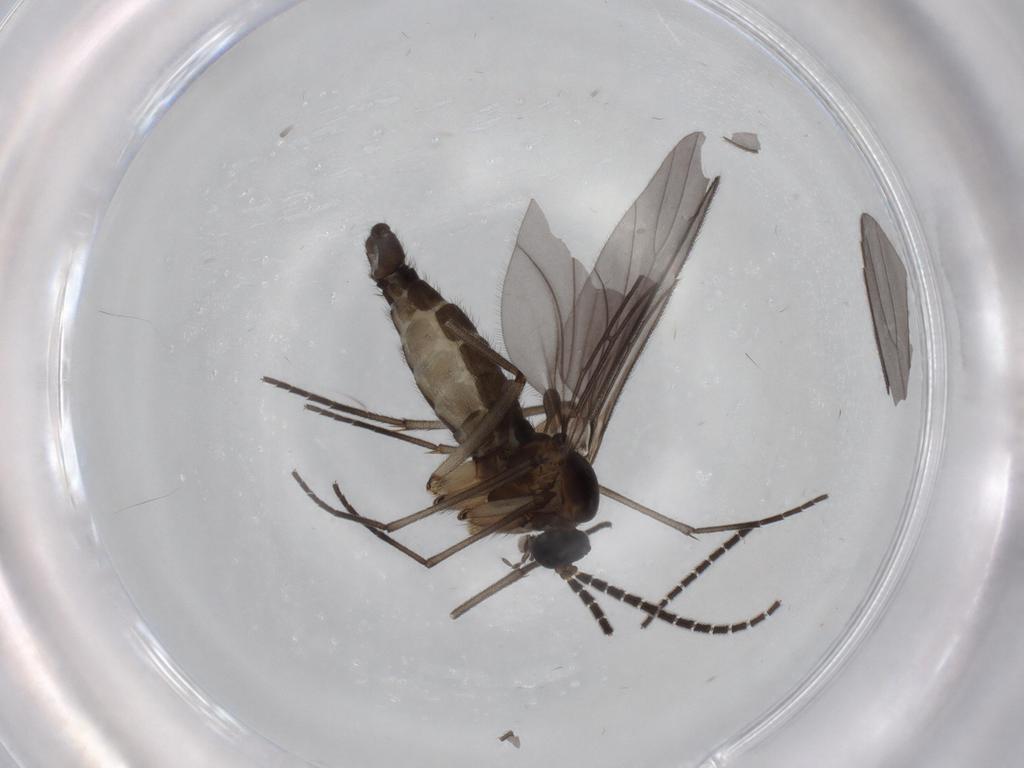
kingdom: Animalia
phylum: Arthropoda
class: Insecta
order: Diptera
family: Sciaridae
